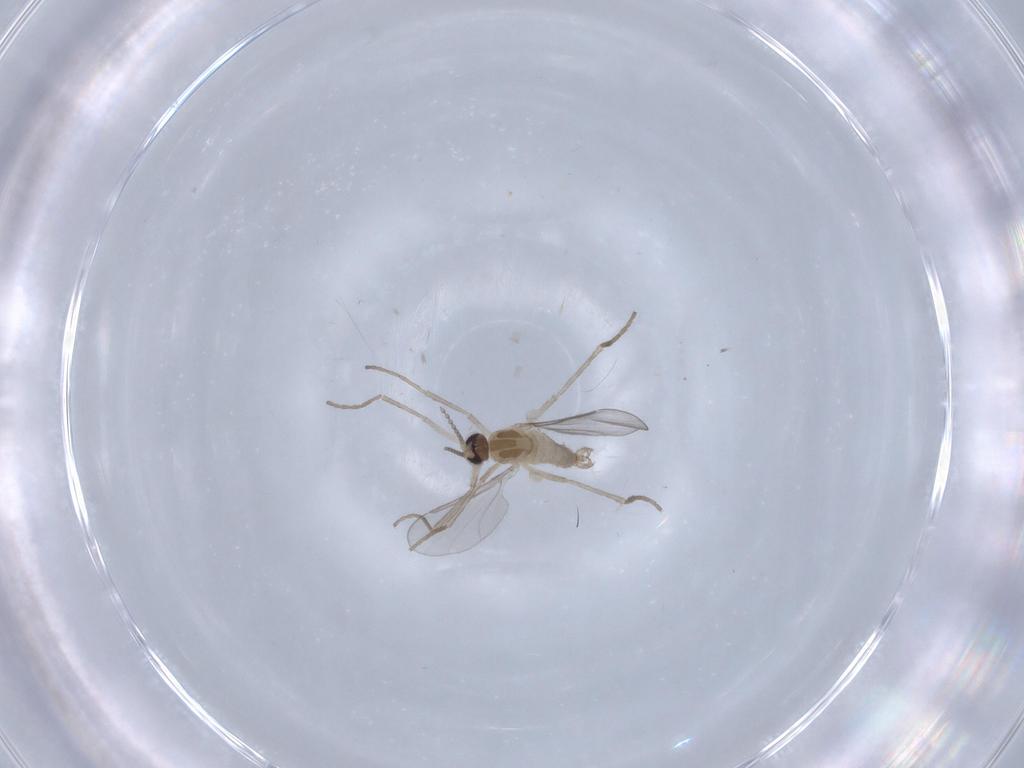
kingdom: Animalia
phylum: Arthropoda
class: Insecta
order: Diptera
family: Cecidomyiidae
